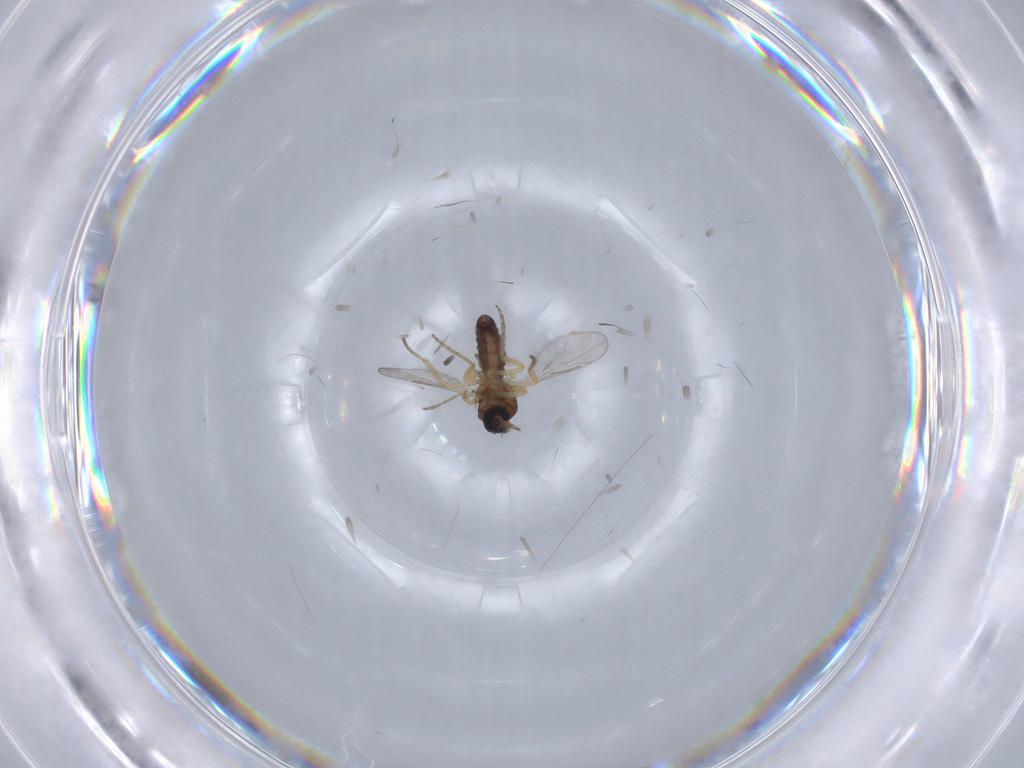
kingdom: Animalia
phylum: Arthropoda
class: Insecta
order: Diptera
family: Ceratopogonidae
